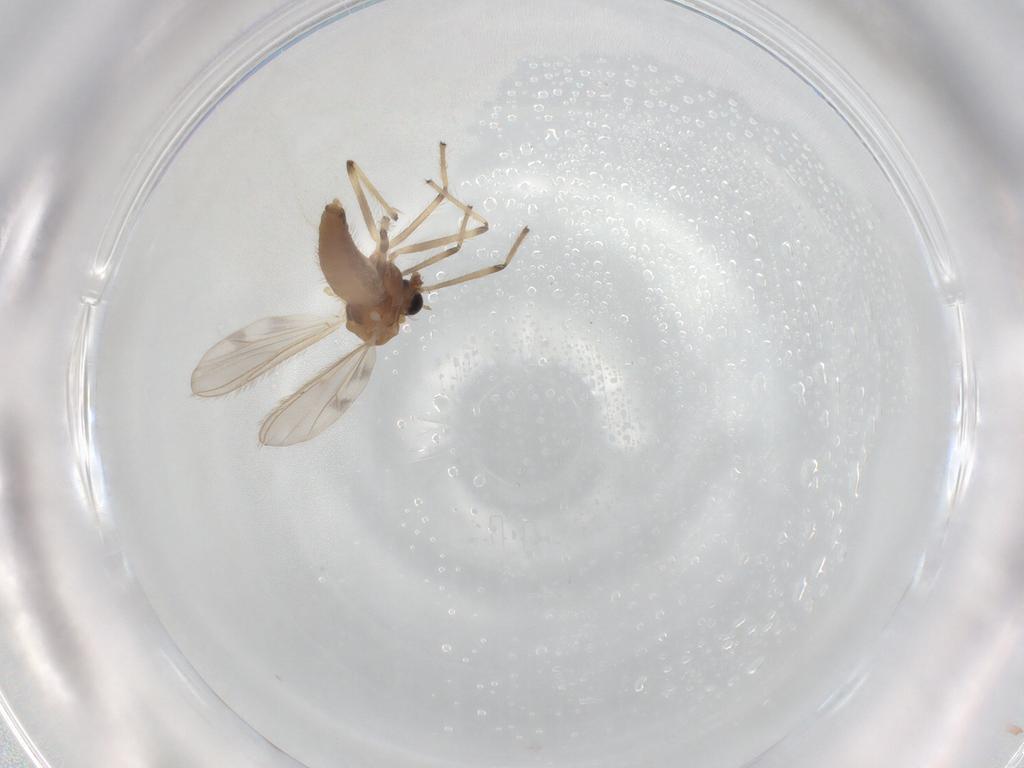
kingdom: Animalia
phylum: Arthropoda
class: Insecta
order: Diptera
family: Chironomidae
